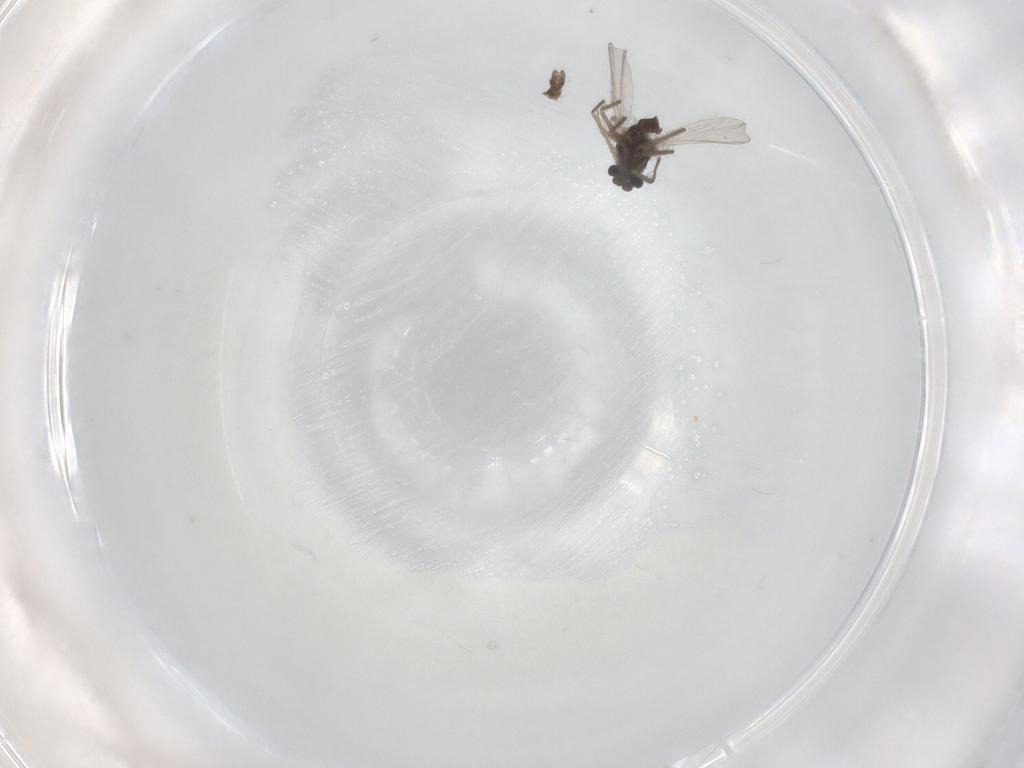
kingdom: Animalia
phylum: Arthropoda
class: Insecta
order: Diptera
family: Chironomidae
